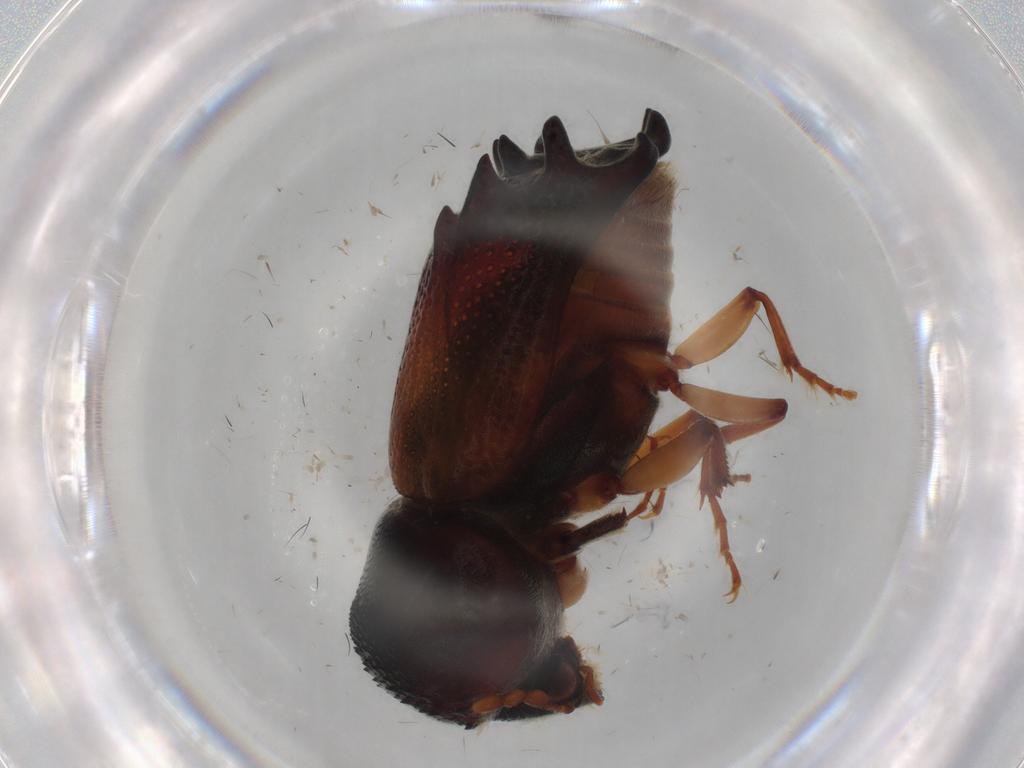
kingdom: Animalia
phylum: Arthropoda
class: Insecta
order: Coleoptera
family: Bostrichidae
